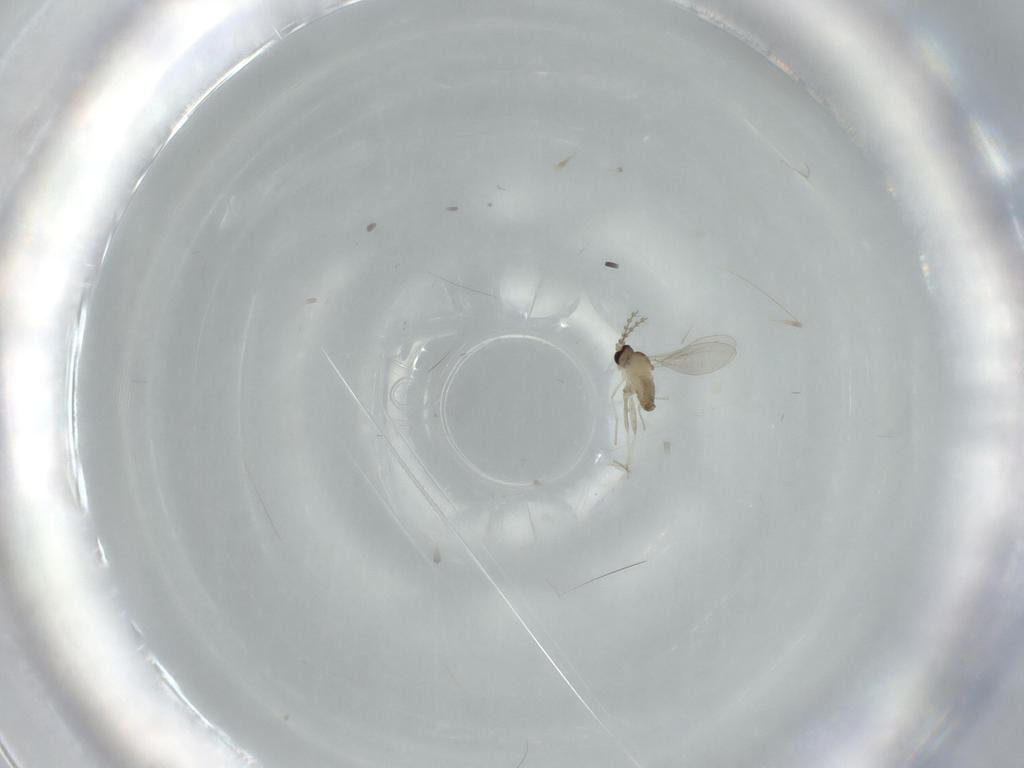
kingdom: Animalia
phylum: Arthropoda
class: Insecta
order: Diptera
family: Cecidomyiidae
